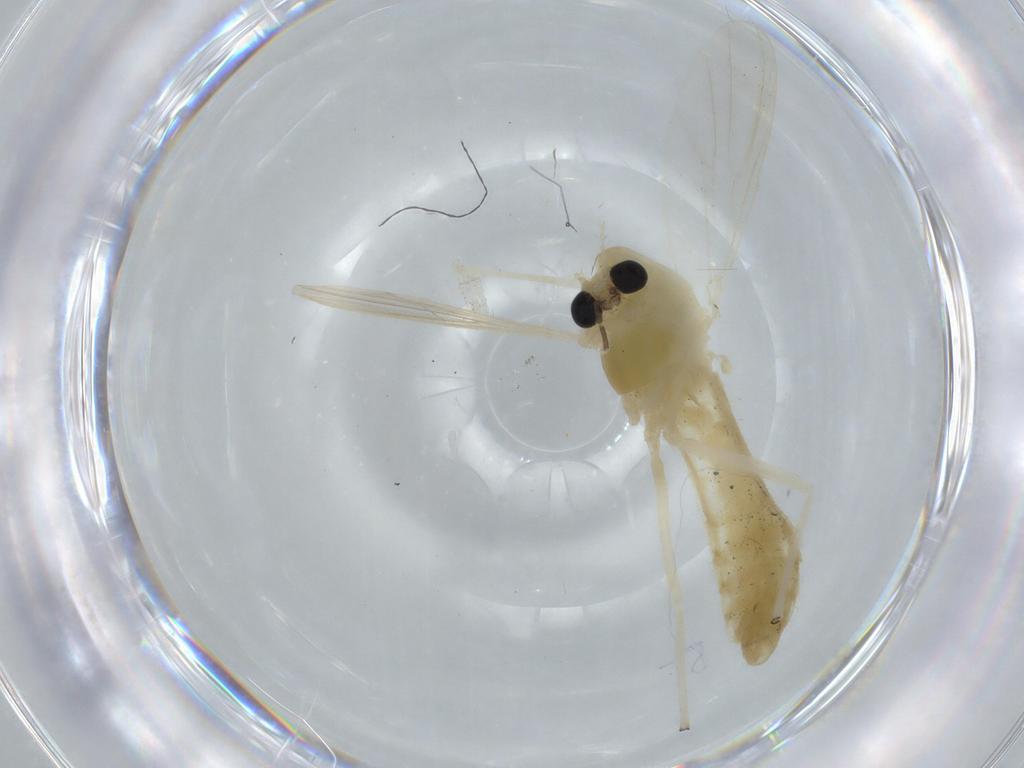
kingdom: Animalia
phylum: Arthropoda
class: Insecta
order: Diptera
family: Chironomidae
